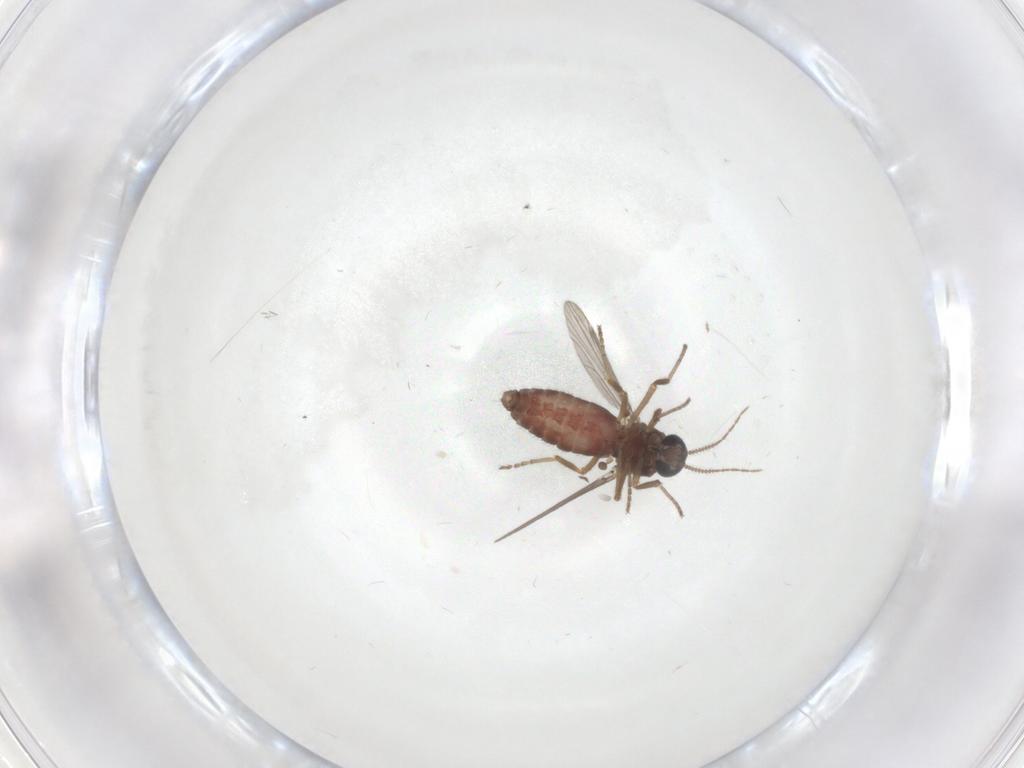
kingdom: Animalia
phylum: Arthropoda
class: Insecta
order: Diptera
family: Ceratopogonidae
